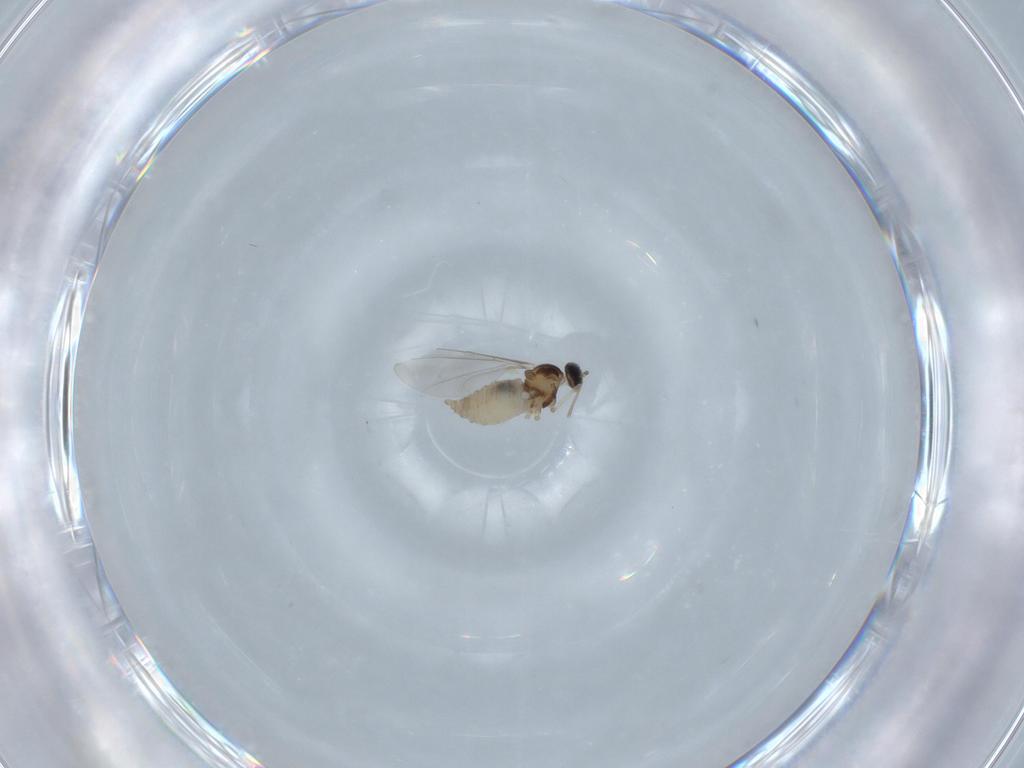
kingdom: Animalia
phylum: Arthropoda
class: Insecta
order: Diptera
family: Cecidomyiidae
